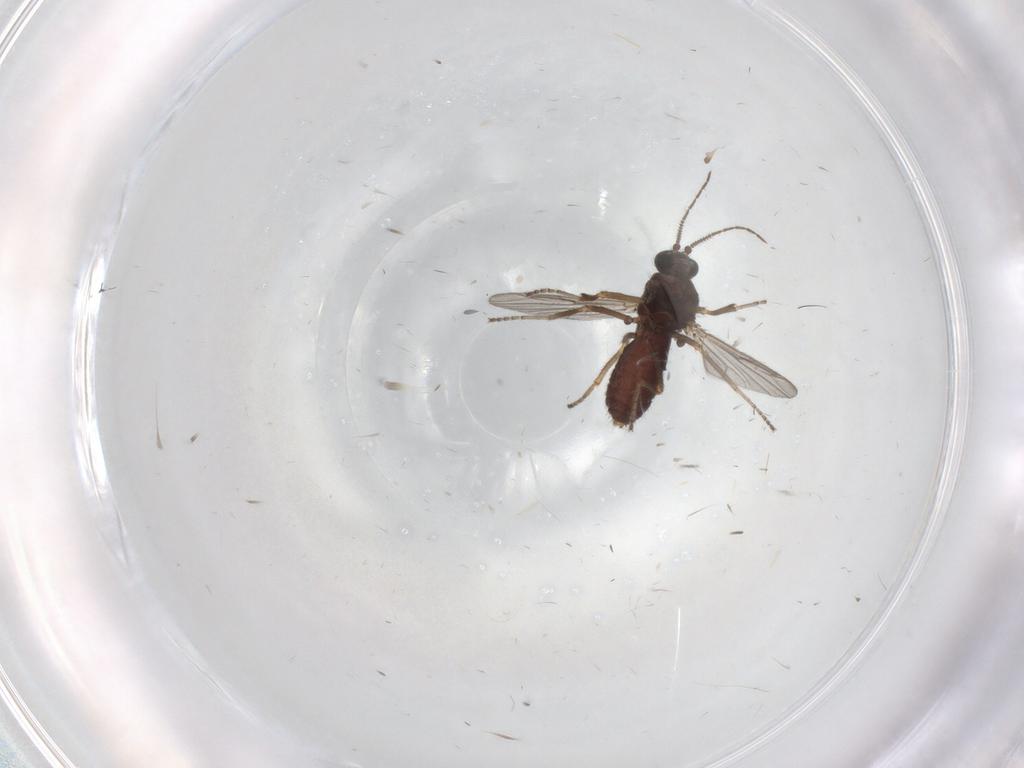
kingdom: Animalia
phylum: Arthropoda
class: Insecta
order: Diptera
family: Ceratopogonidae
